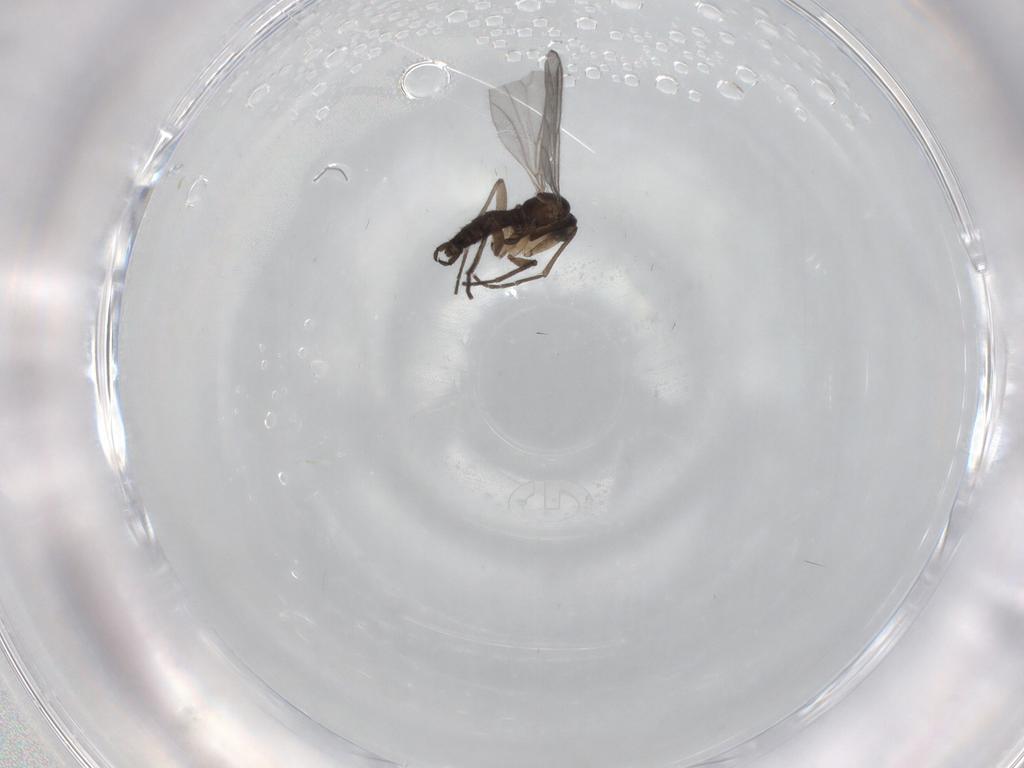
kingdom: Animalia
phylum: Arthropoda
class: Insecta
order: Diptera
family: Sciaridae
